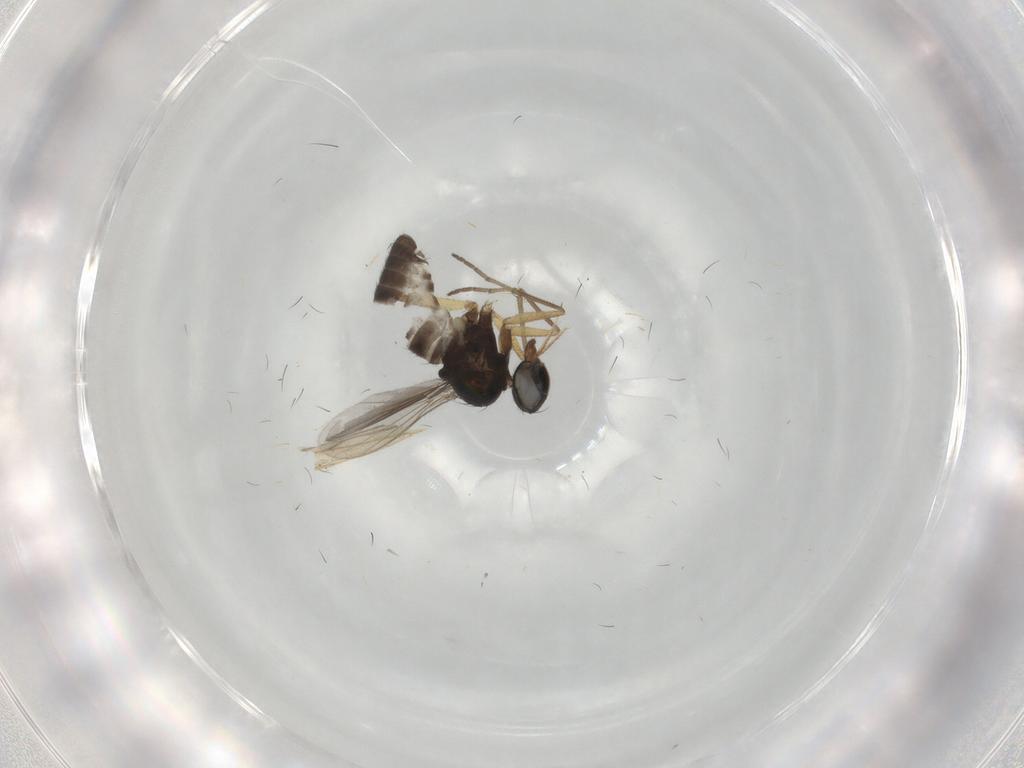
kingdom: Animalia
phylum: Arthropoda
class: Insecta
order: Diptera
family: Dolichopodidae
